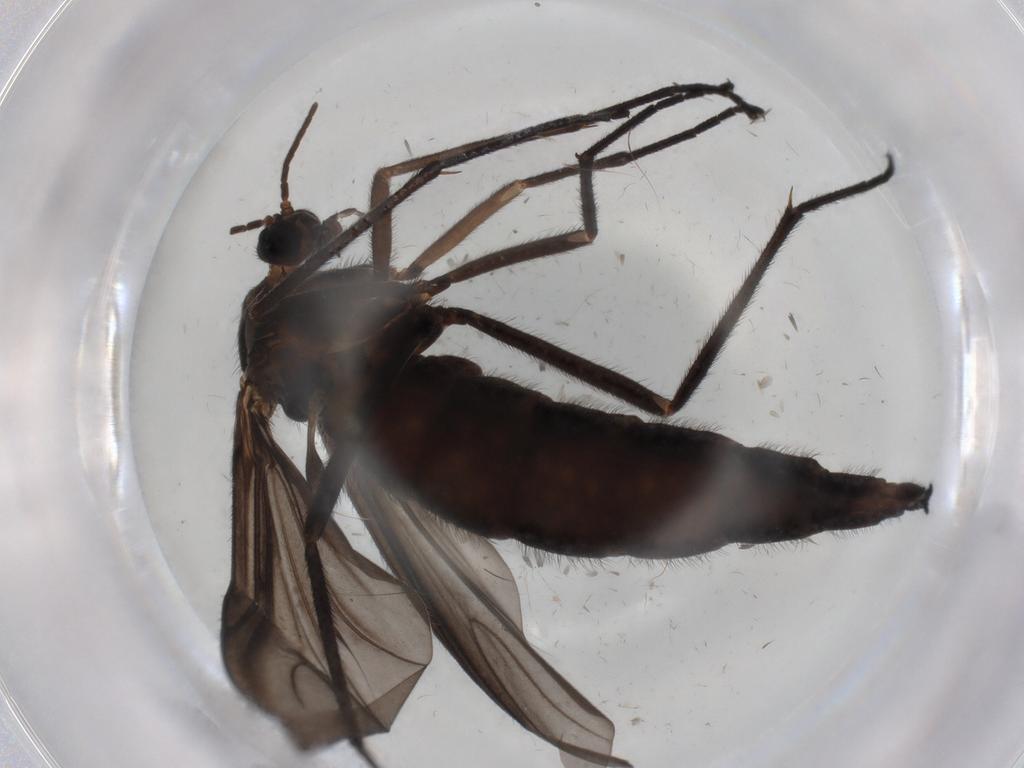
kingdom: Animalia
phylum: Arthropoda
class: Insecta
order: Diptera
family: Sciaridae
